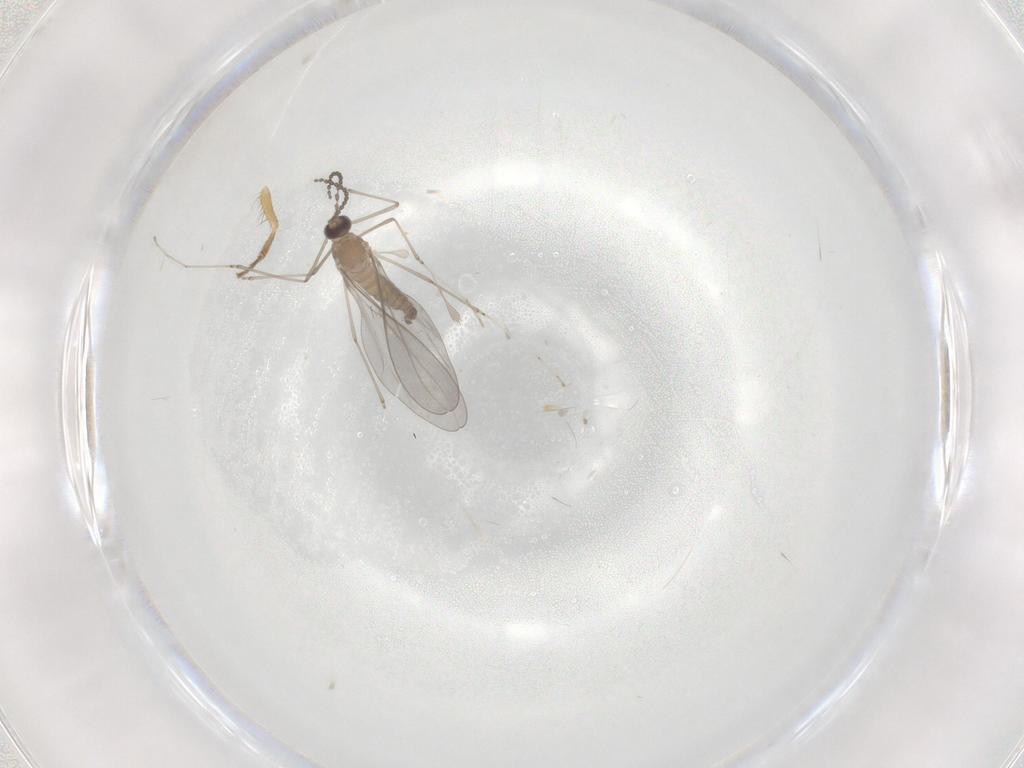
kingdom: Animalia
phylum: Arthropoda
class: Insecta
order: Diptera
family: Cecidomyiidae
